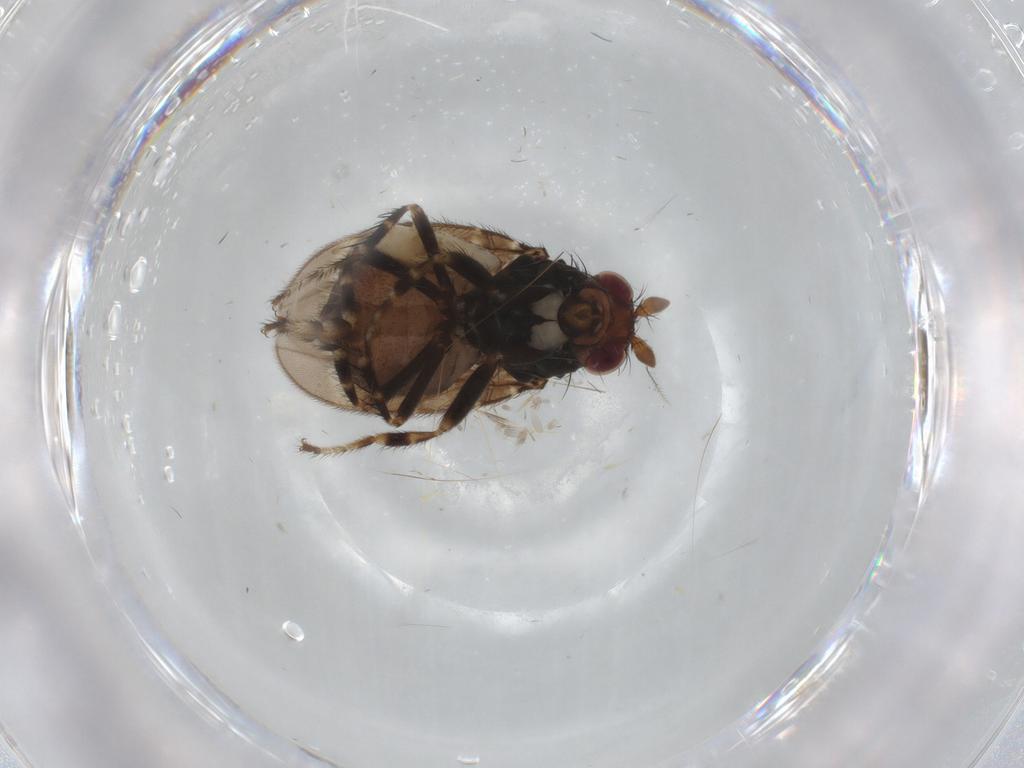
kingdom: Animalia
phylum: Arthropoda
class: Insecta
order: Diptera
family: Sphaeroceridae
